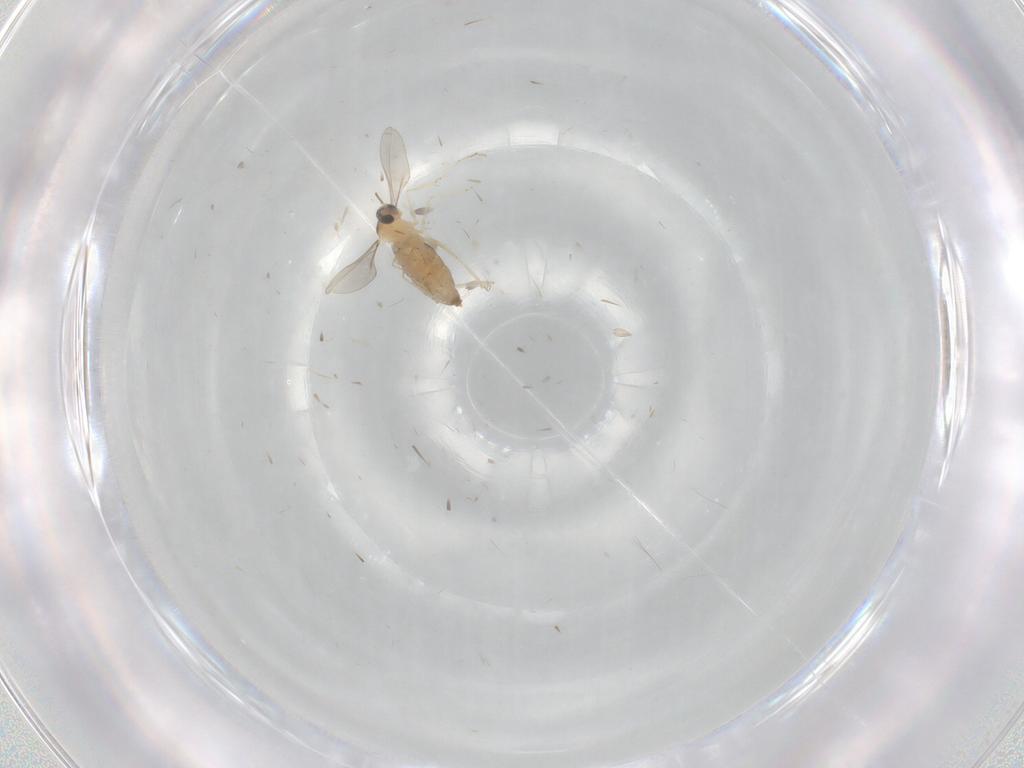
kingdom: Animalia
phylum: Arthropoda
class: Insecta
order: Diptera
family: Cecidomyiidae
